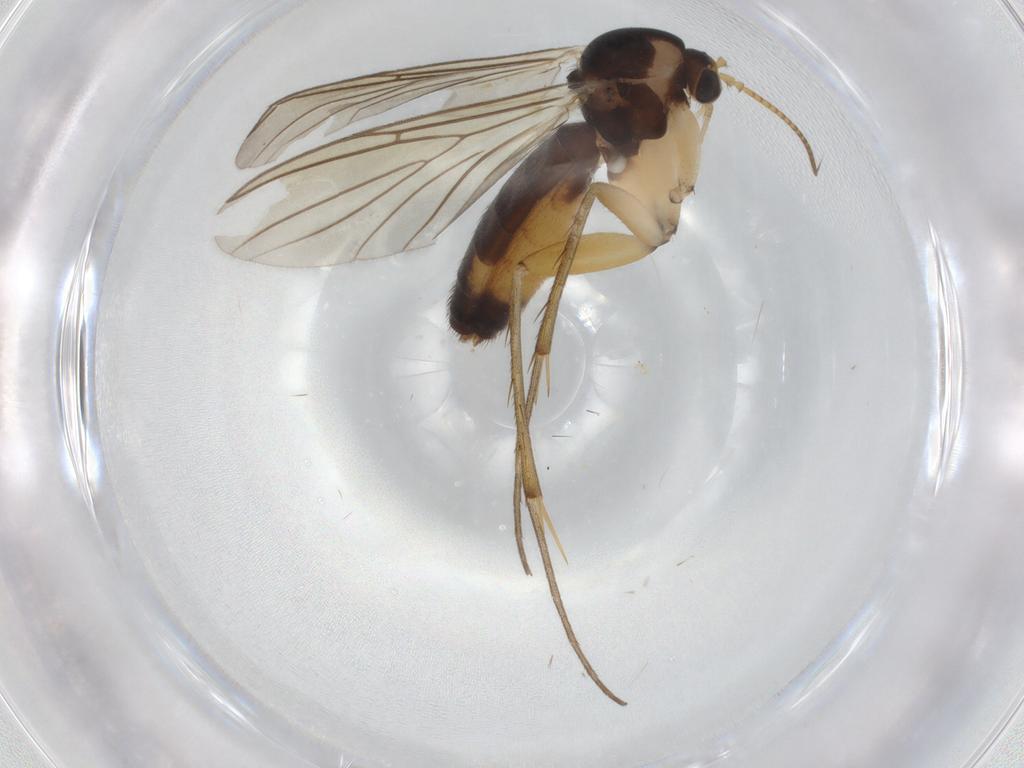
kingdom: Animalia
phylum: Arthropoda
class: Insecta
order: Diptera
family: Mycetophilidae
